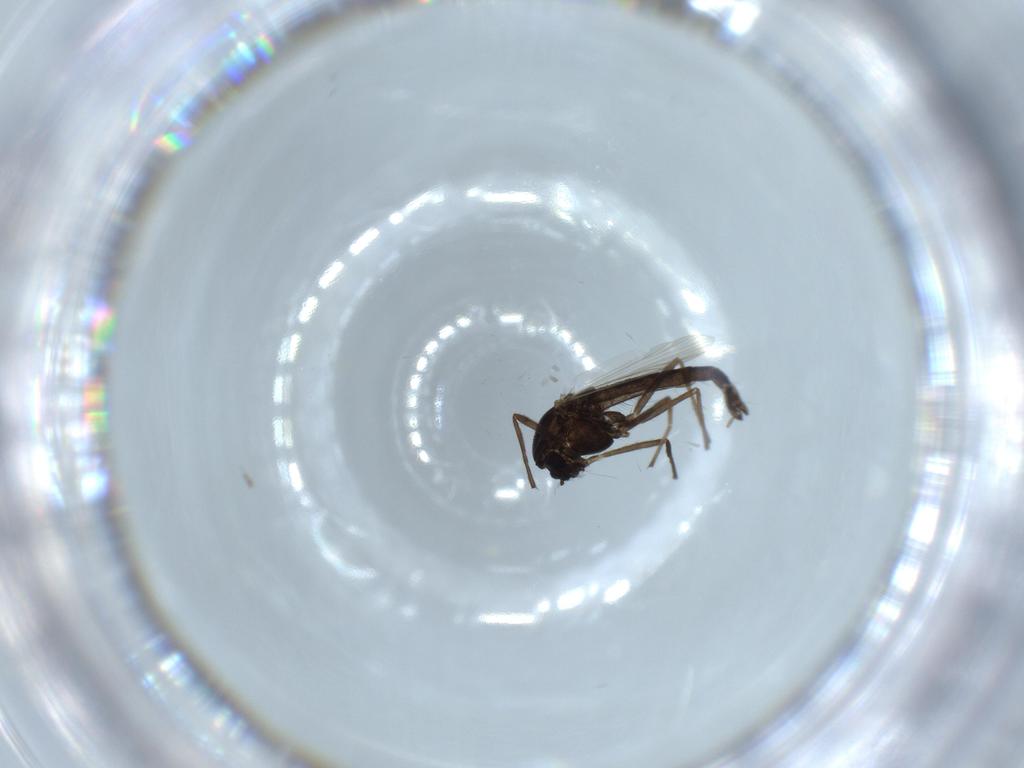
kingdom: Animalia
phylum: Arthropoda
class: Insecta
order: Diptera
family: Chironomidae
